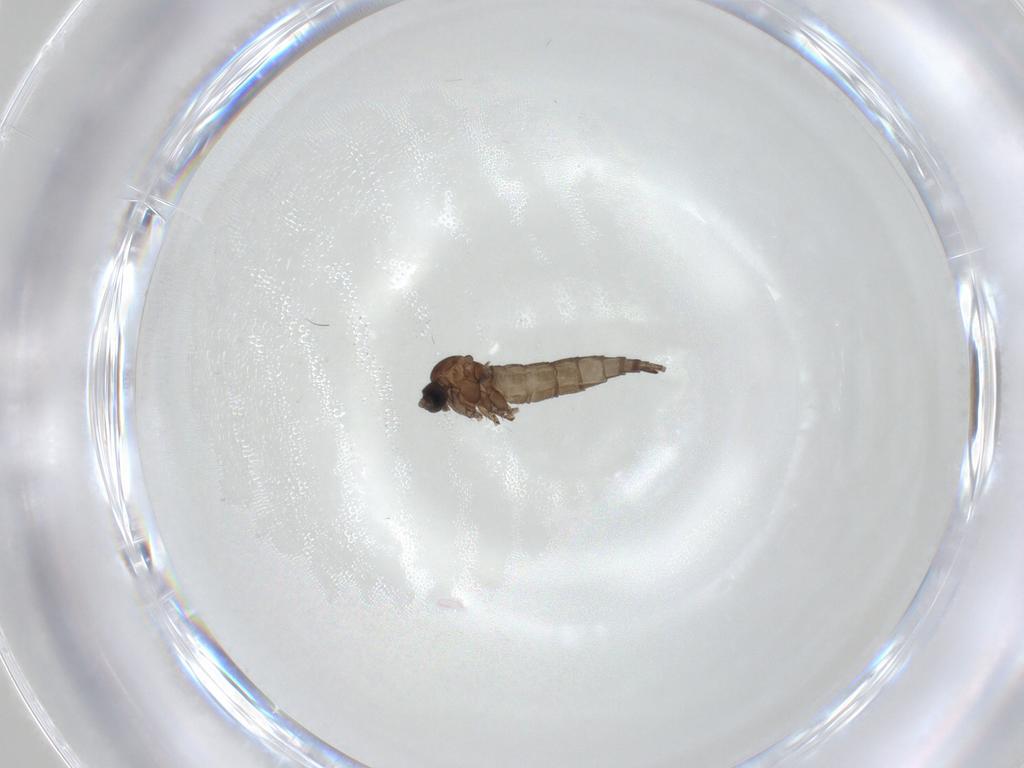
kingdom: Animalia
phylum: Arthropoda
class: Insecta
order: Diptera
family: Sciaridae
